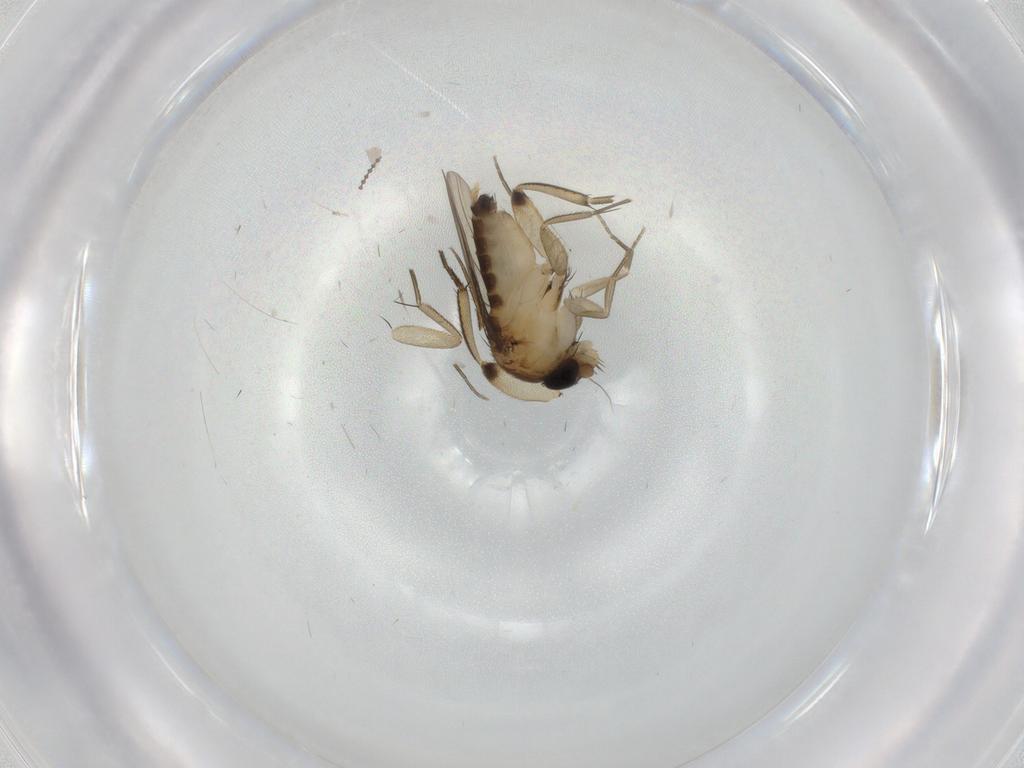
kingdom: Animalia
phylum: Arthropoda
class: Insecta
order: Diptera
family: Phoridae
